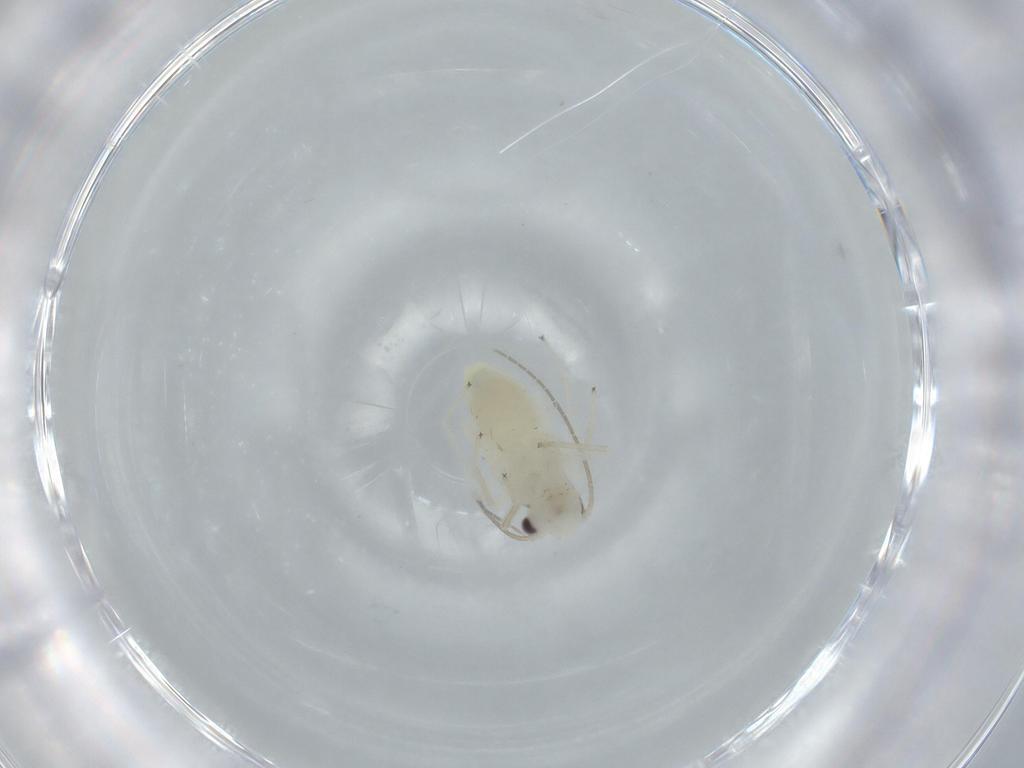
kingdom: Animalia
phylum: Arthropoda
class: Insecta
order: Psocodea
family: Caeciliusidae
